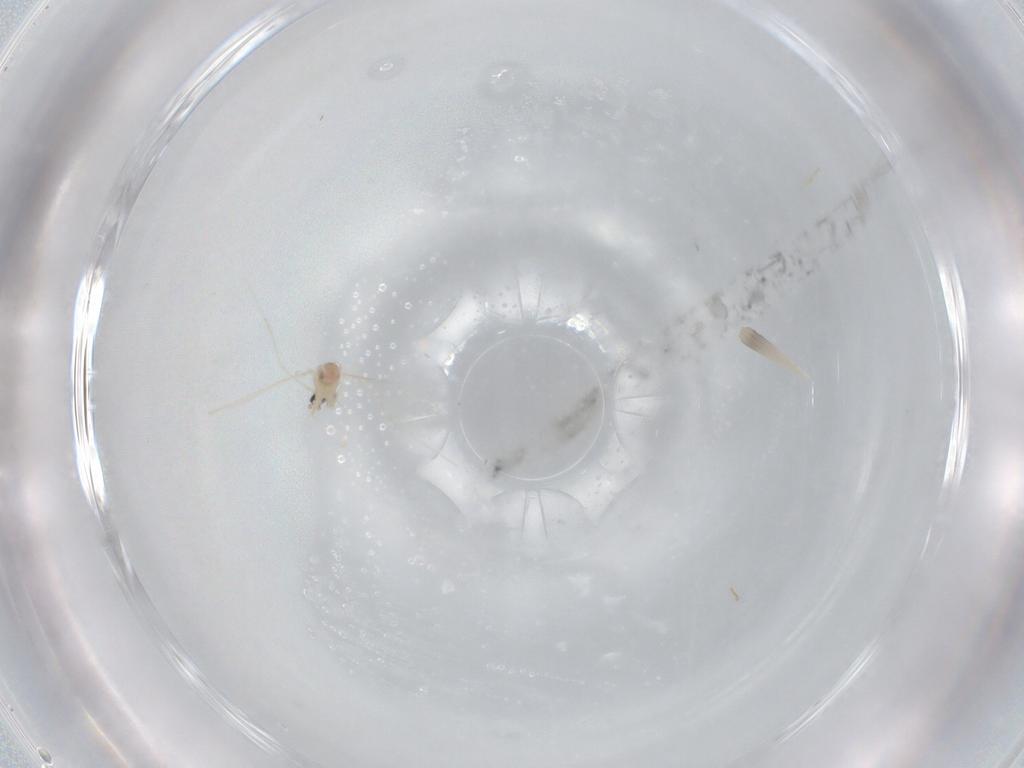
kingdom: Animalia
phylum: Arthropoda
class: Insecta
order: Diptera
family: Cecidomyiidae
